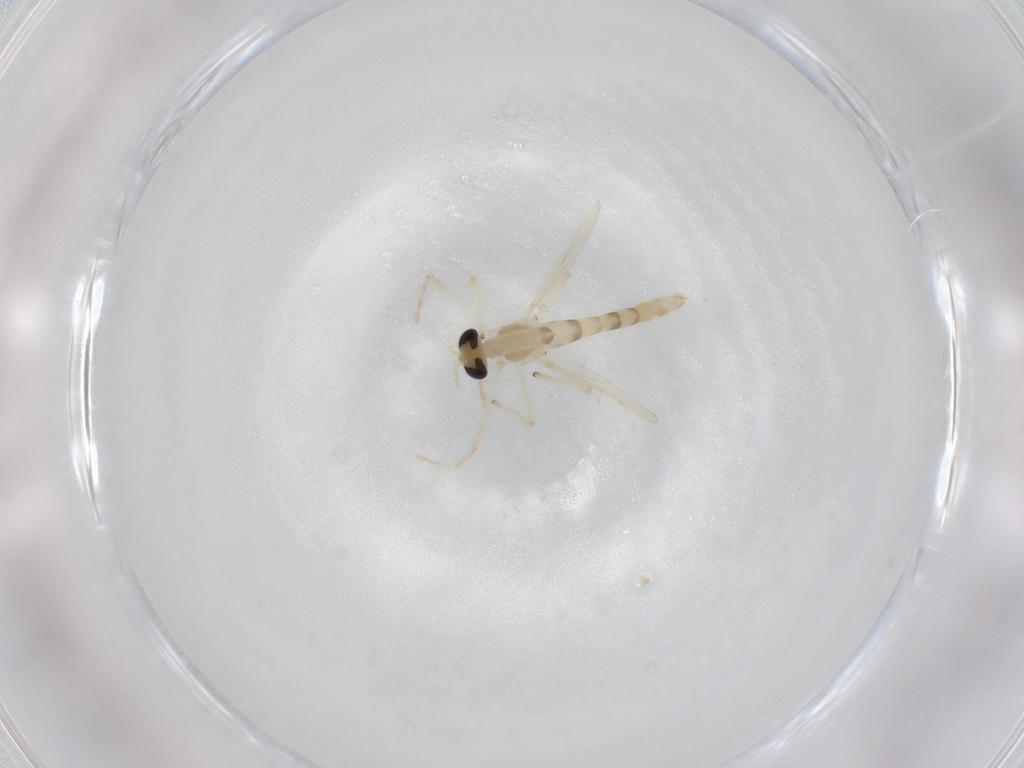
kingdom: Animalia
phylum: Arthropoda
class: Insecta
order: Diptera
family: Chironomidae
